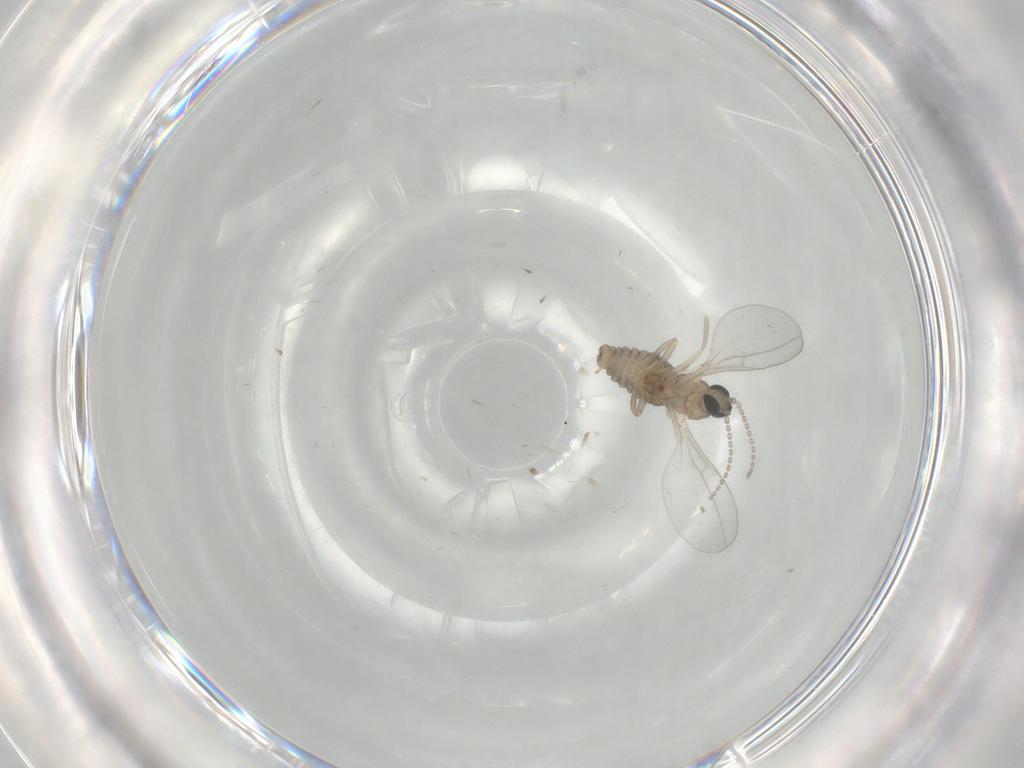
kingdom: Animalia
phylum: Arthropoda
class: Insecta
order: Diptera
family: Cecidomyiidae
